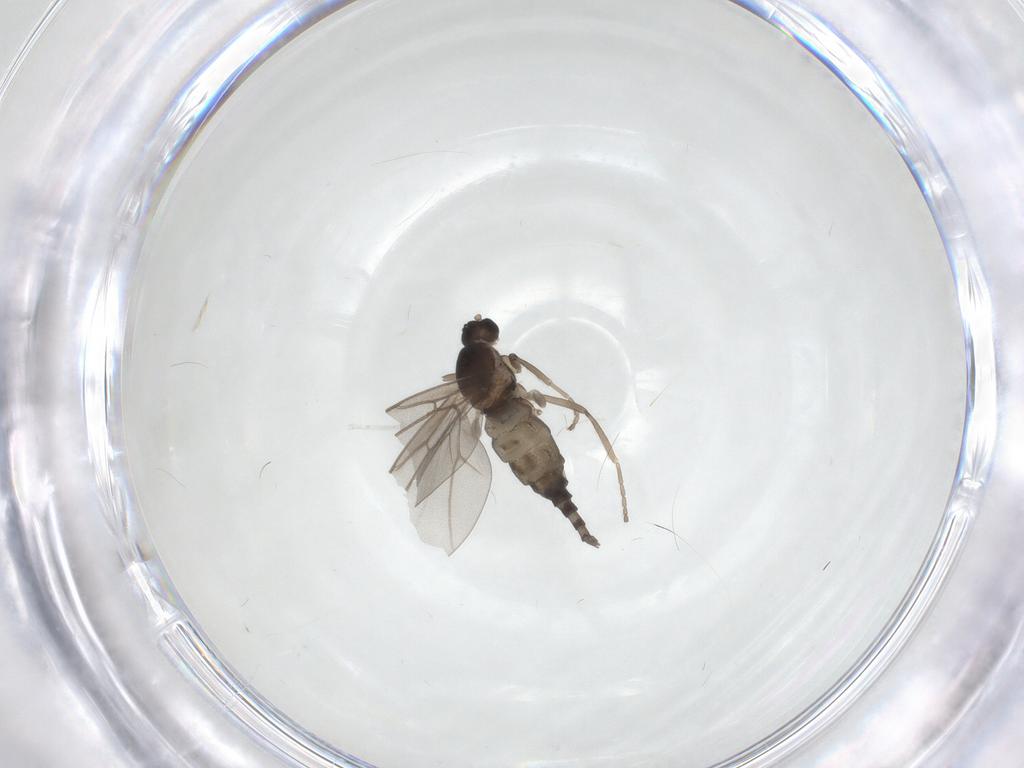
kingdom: Animalia
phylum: Arthropoda
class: Insecta
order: Diptera
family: Cecidomyiidae
